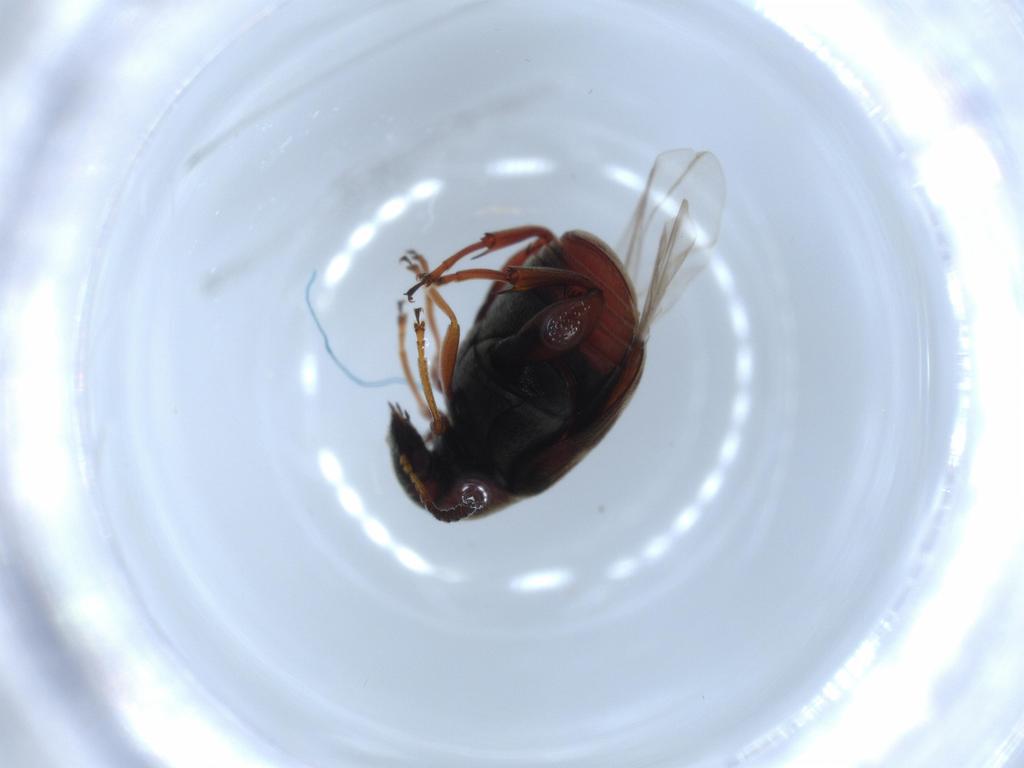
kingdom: Animalia
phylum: Arthropoda
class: Insecta
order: Coleoptera
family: Chrysomelidae
